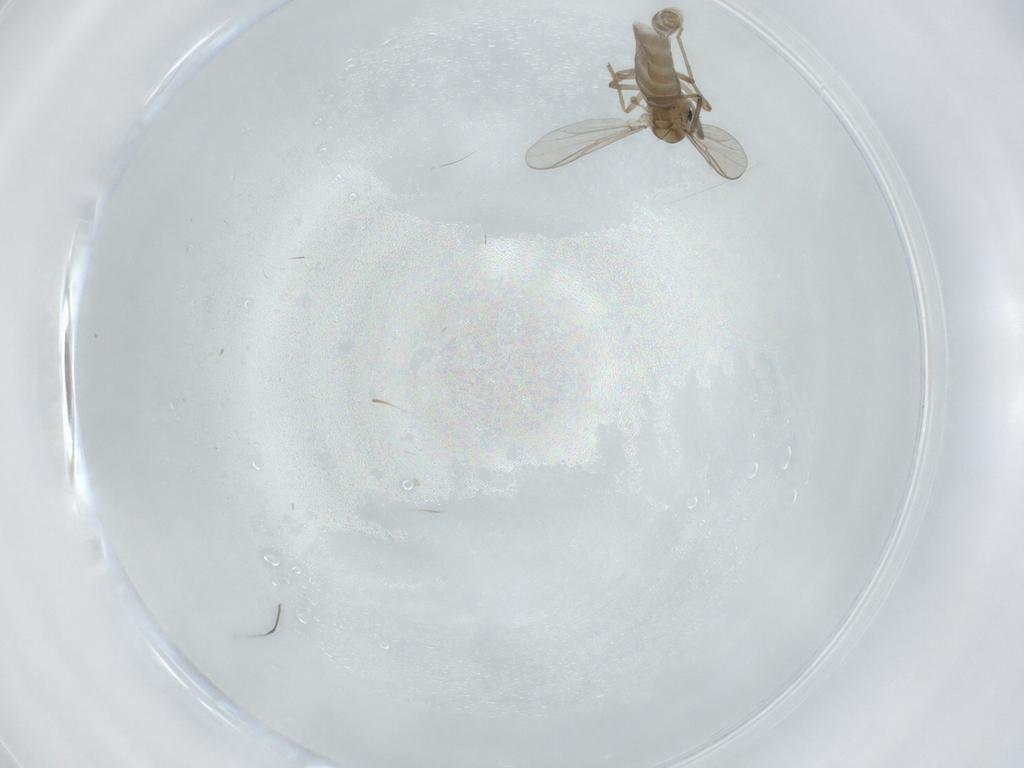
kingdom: Animalia
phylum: Arthropoda
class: Insecta
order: Diptera
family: Chironomidae
